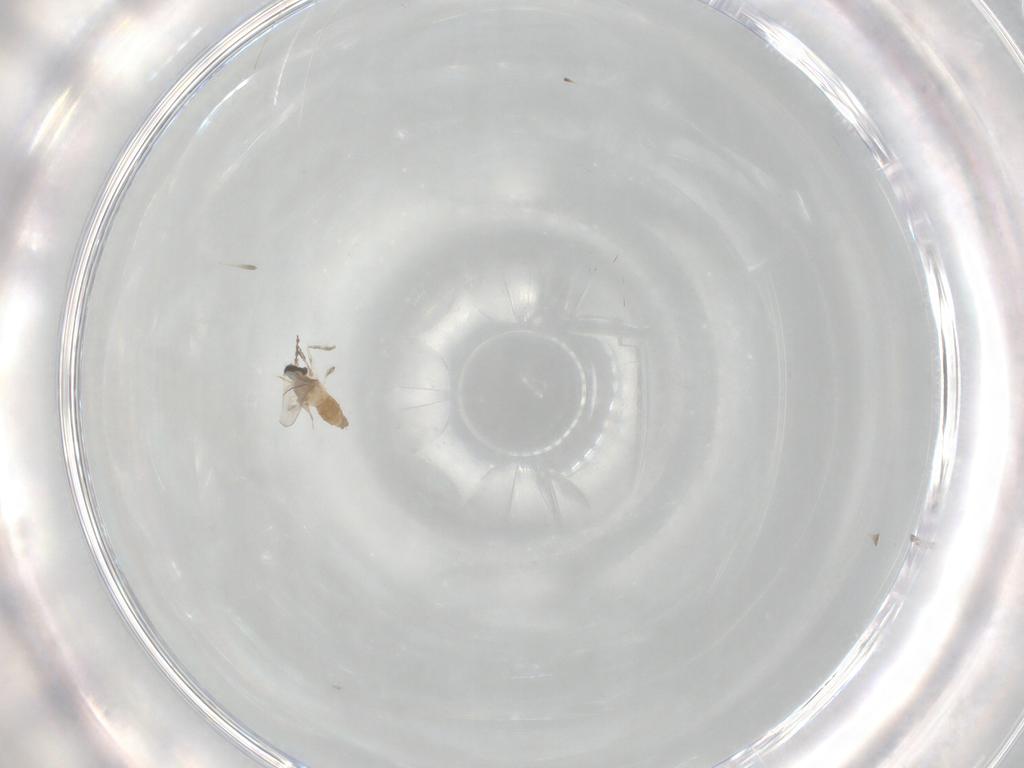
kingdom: Animalia
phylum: Arthropoda
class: Insecta
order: Diptera
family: Cecidomyiidae
